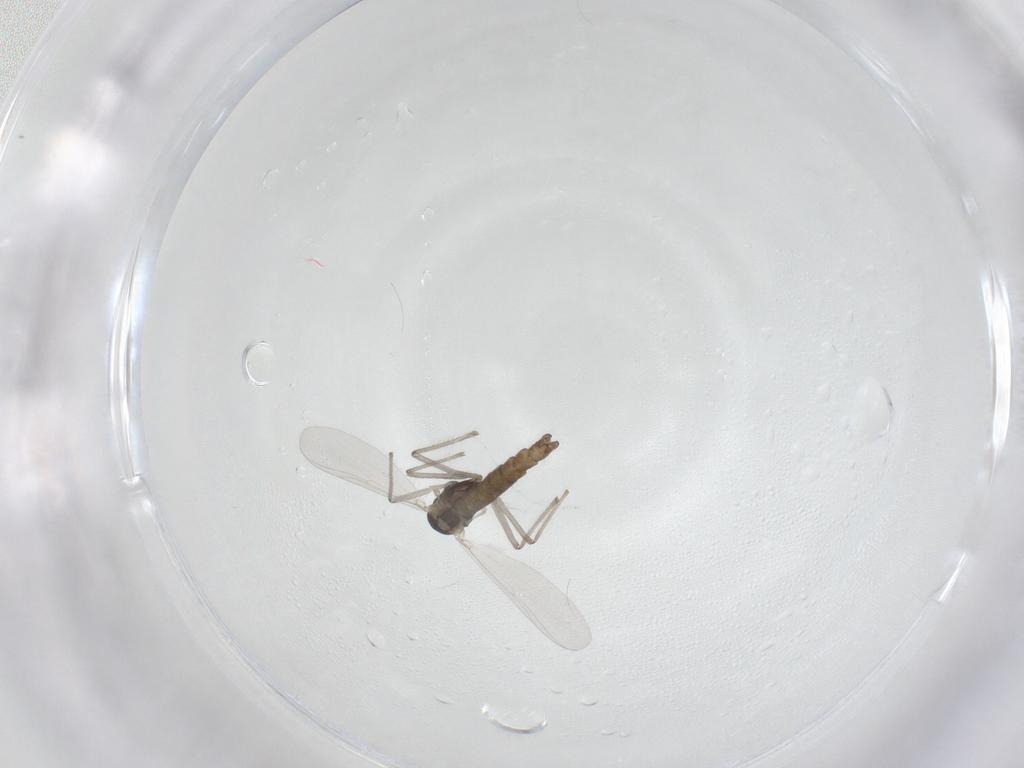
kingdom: Animalia
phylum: Arthropoda
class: Insecta
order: Diptera
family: Chironomidae
